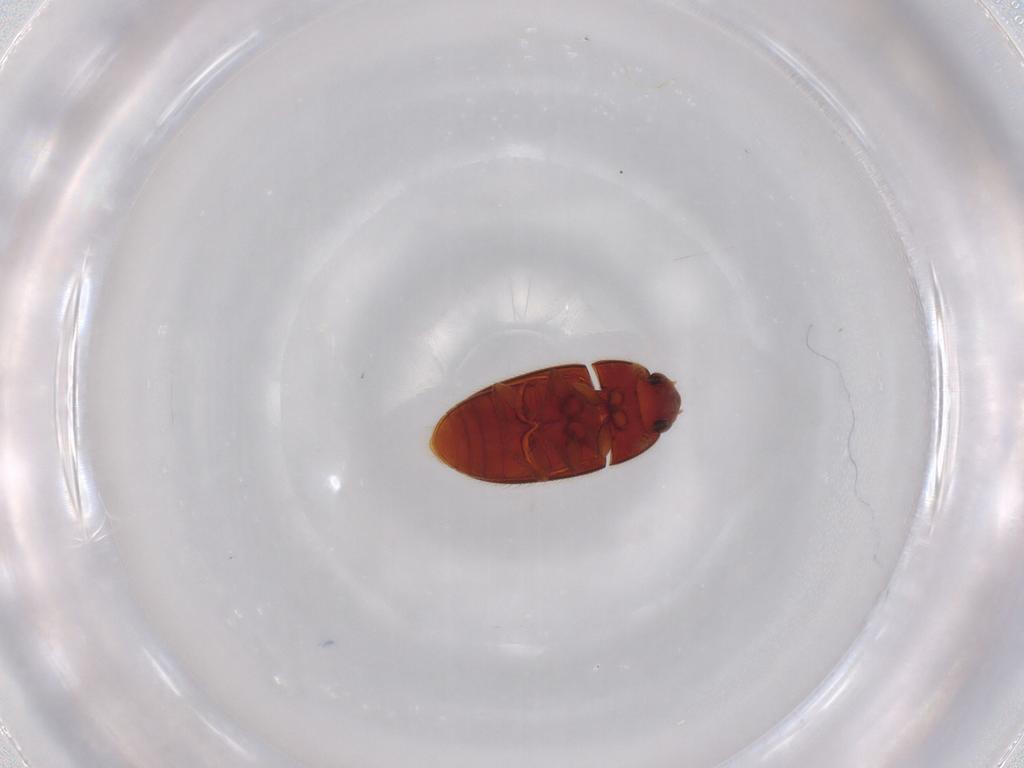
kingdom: Animalia
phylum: Arthropoda
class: Insecta
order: Coleoptera
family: Biphyllidae
